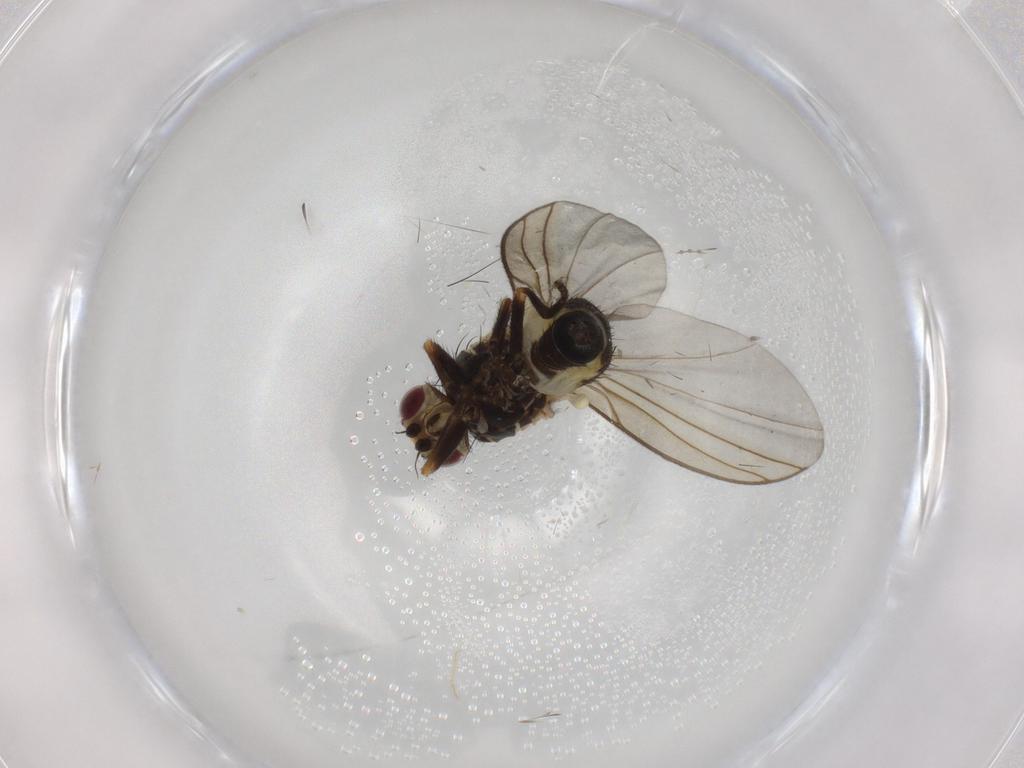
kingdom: Animalia
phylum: Arthropoda
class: Insecta
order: Diptera
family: Empididae
